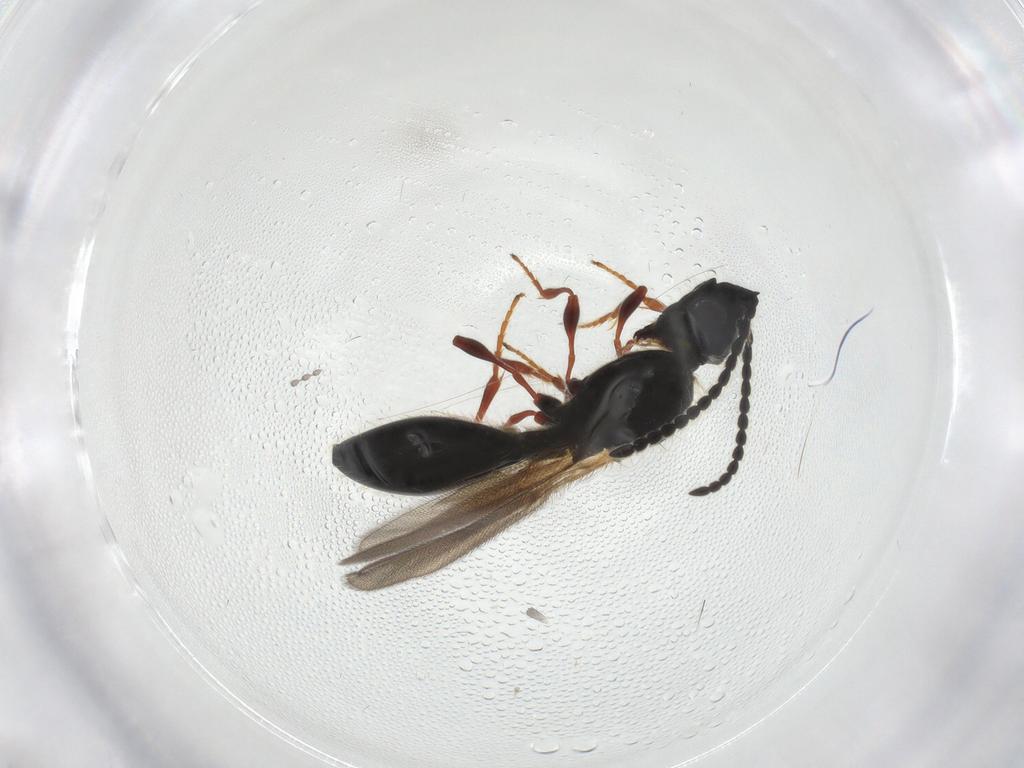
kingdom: Animalia
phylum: Arthropoda
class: Insecta
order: Hymenoptera
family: Diapriidae
